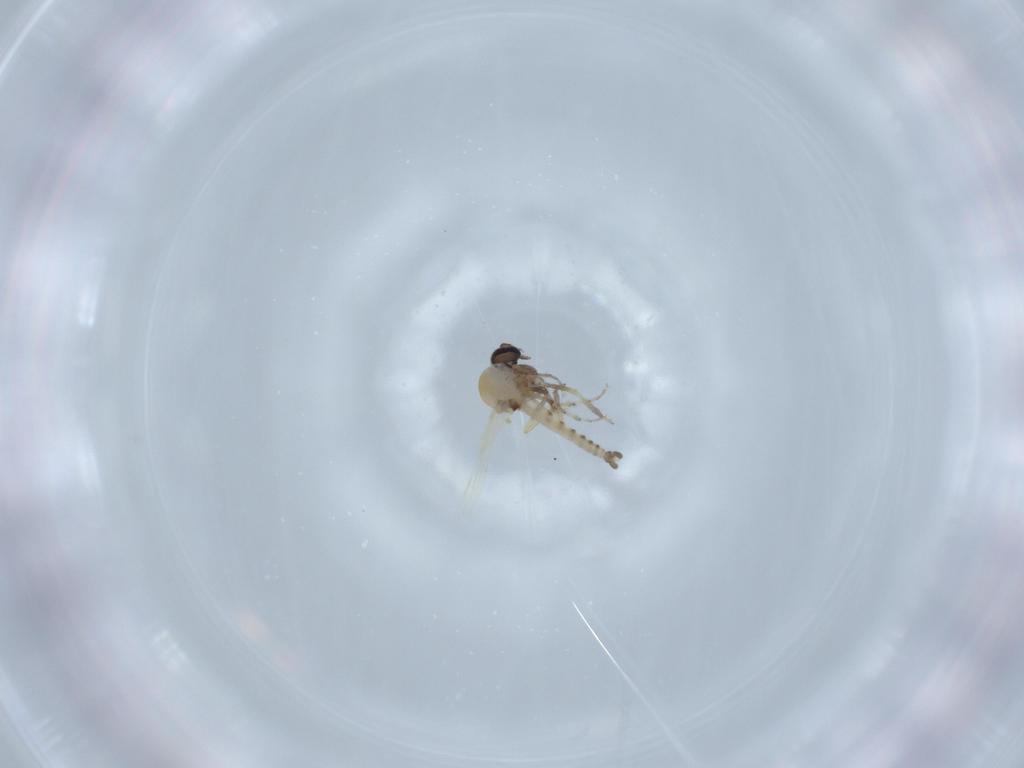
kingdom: Animalia
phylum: Arthropoda
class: Insecta
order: Diptera
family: Ceratopogonidae
